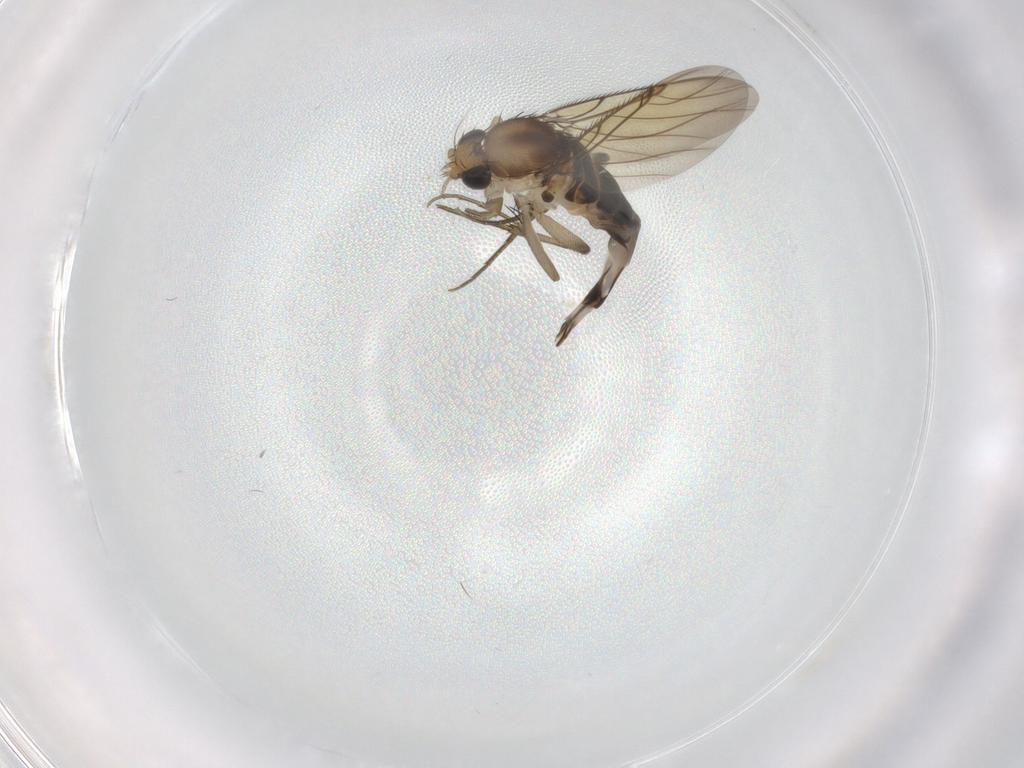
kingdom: Animalia
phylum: Arthropoda
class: Insecta
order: Diptera
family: Phoridae
